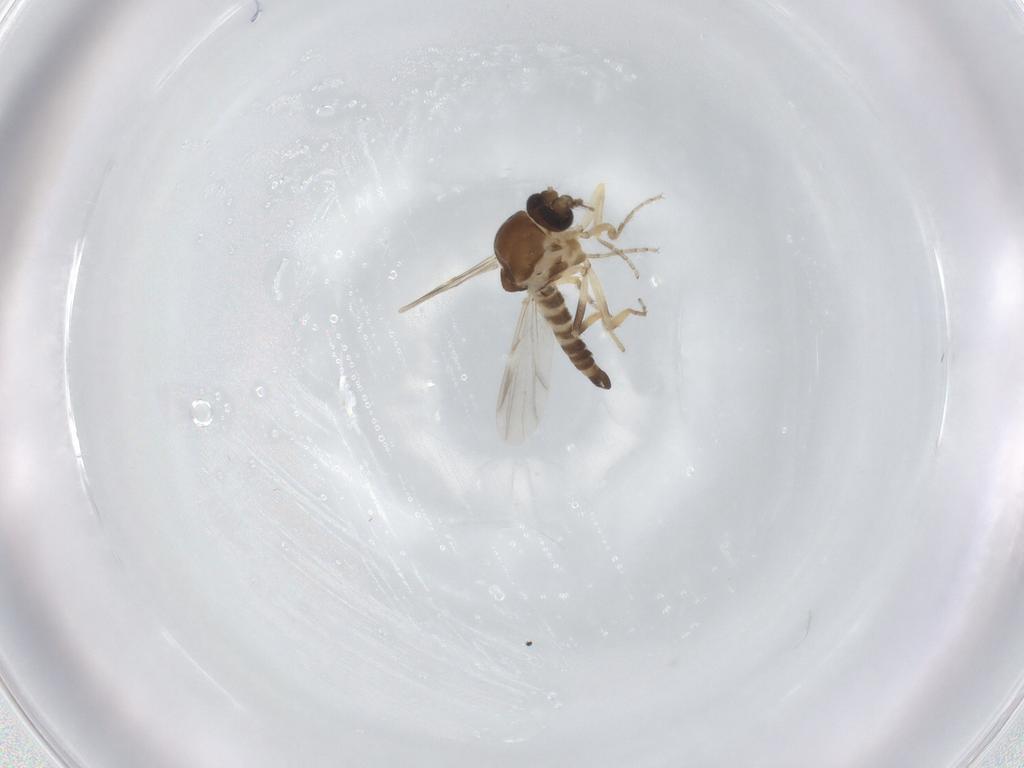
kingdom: Animalia
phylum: Arthropoda
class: Insecta
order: Diptera
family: Ceratopogonidae
